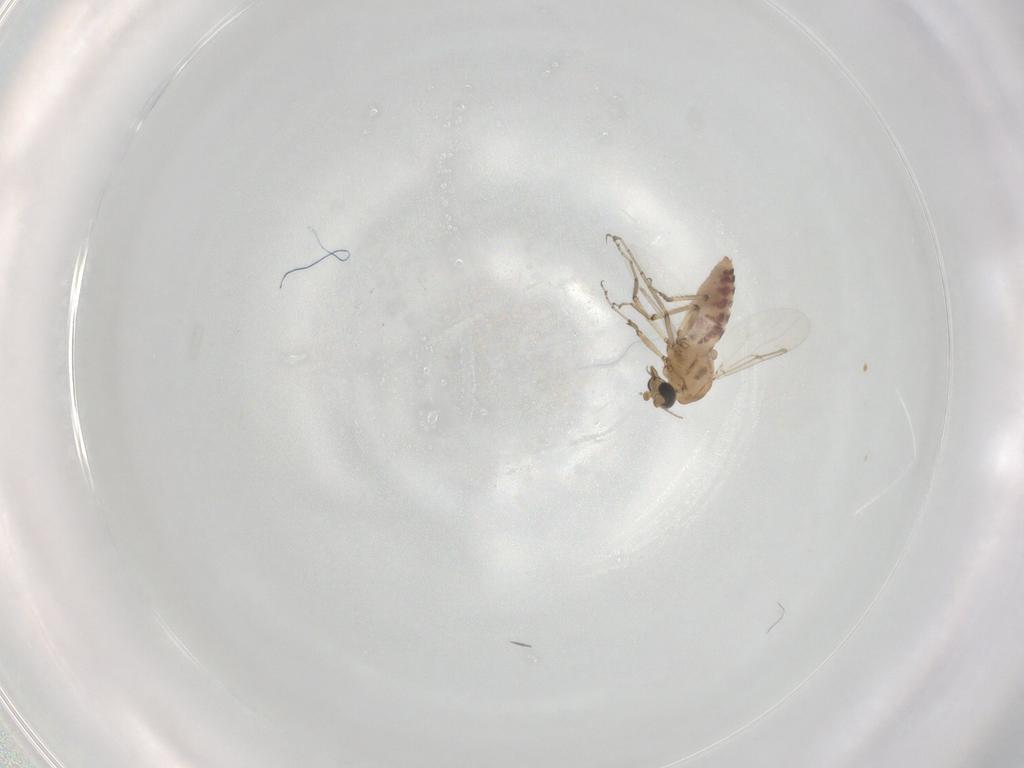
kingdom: Animalia
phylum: Arthropoda
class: Insecta
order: Diptera
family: Ceratopogonidae
